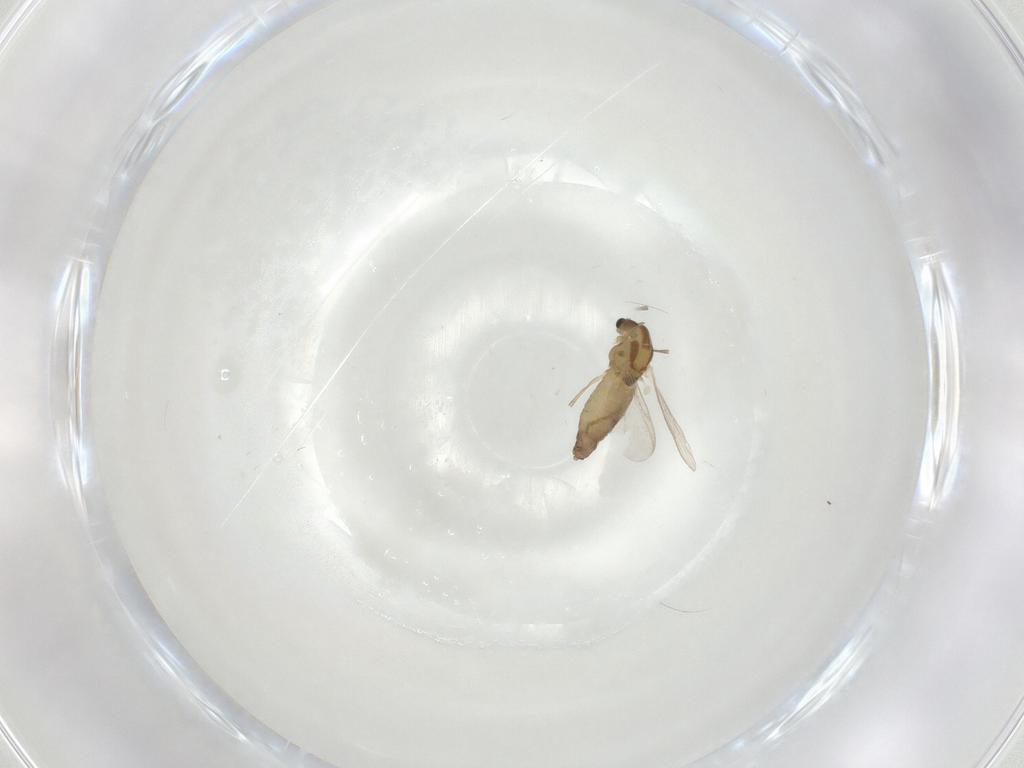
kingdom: Animalia
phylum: Arthropoda
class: Insecta
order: Diptera
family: Chironomidae
